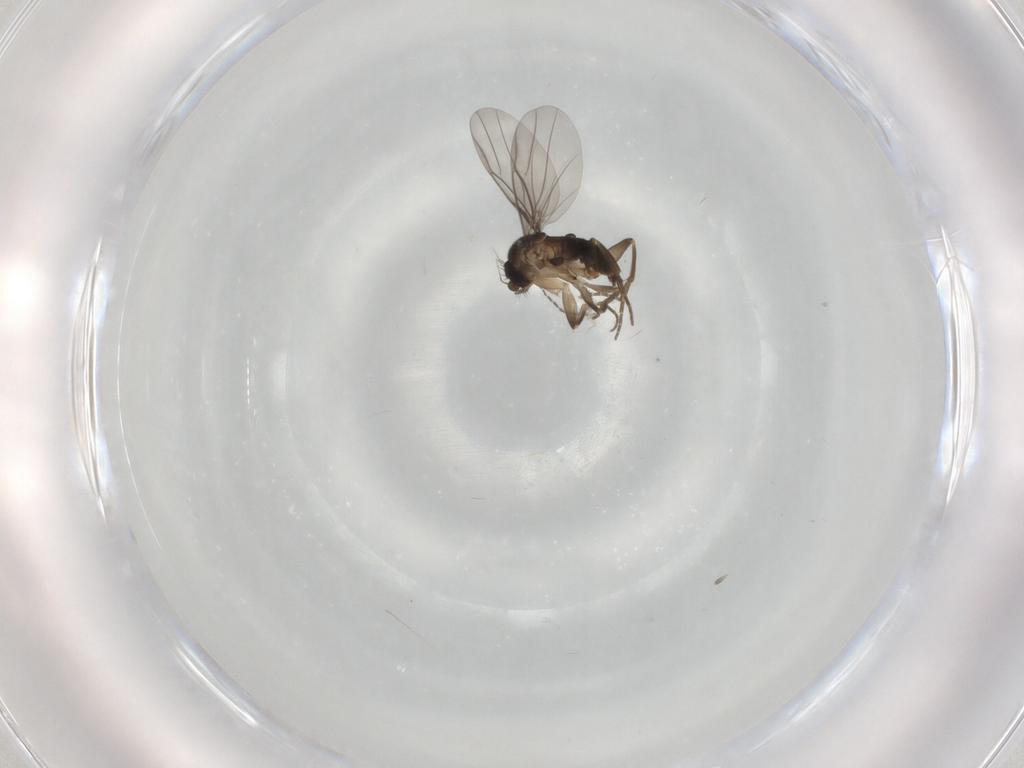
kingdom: Animalia
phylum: Arthropoda
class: Insecta
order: Diptera
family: Cecidomyiidae
